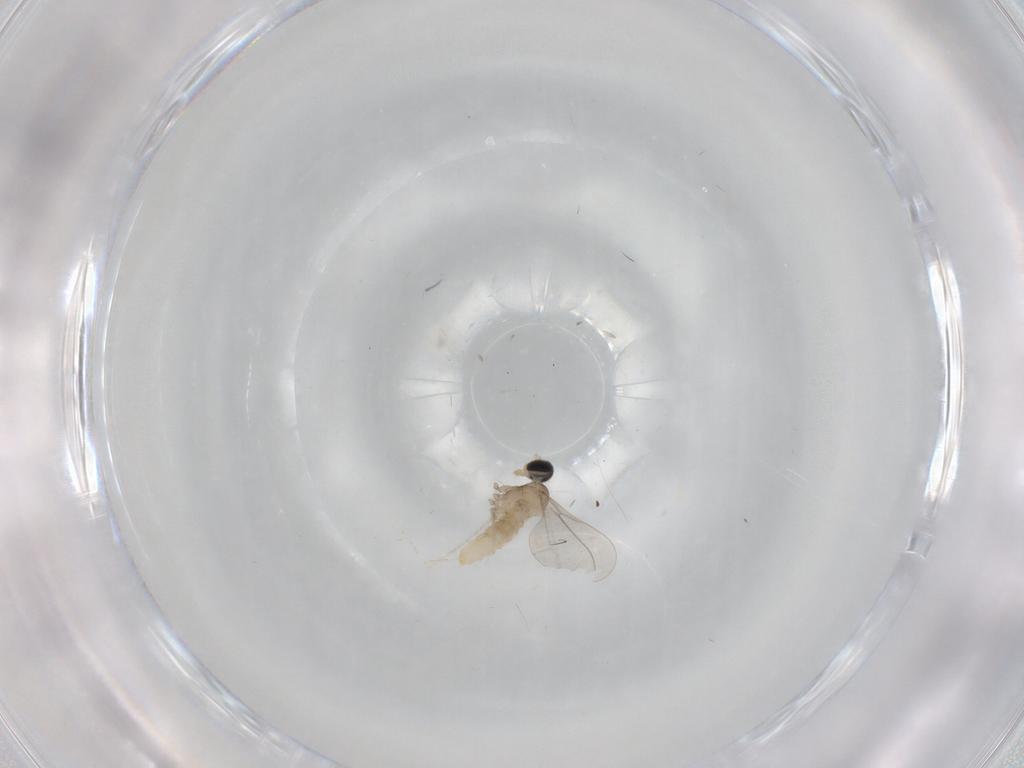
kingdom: Animalia
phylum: Arthropoda
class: Insecta
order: Diptera
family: Cecidomyiidae
